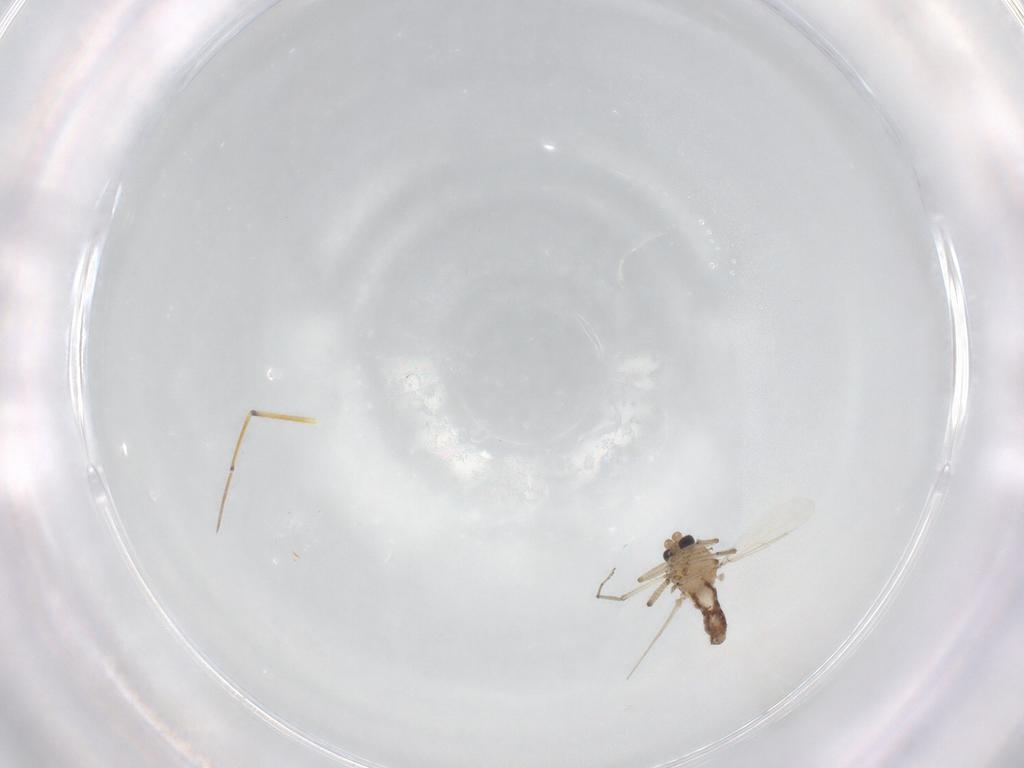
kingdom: Animalia
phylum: Arthropoda
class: Insecta
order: Diptera
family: Ceratopogonidae
